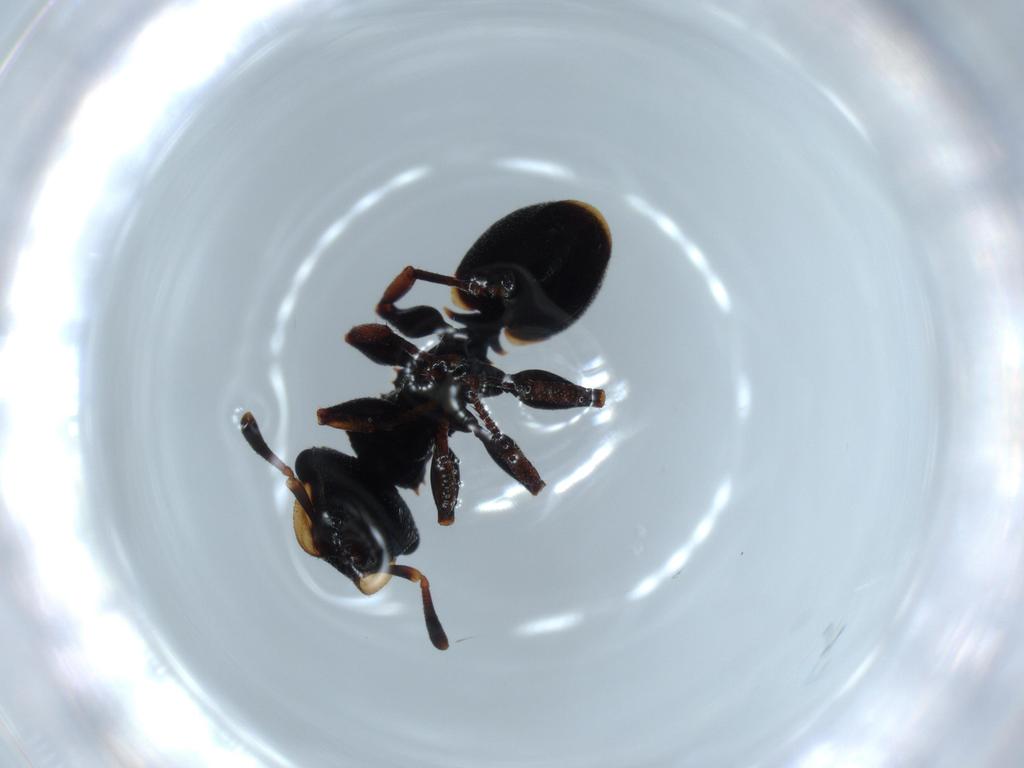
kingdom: Animalia
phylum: Arthropoda
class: Insecta
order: Hymenoptera
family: Formicidae
